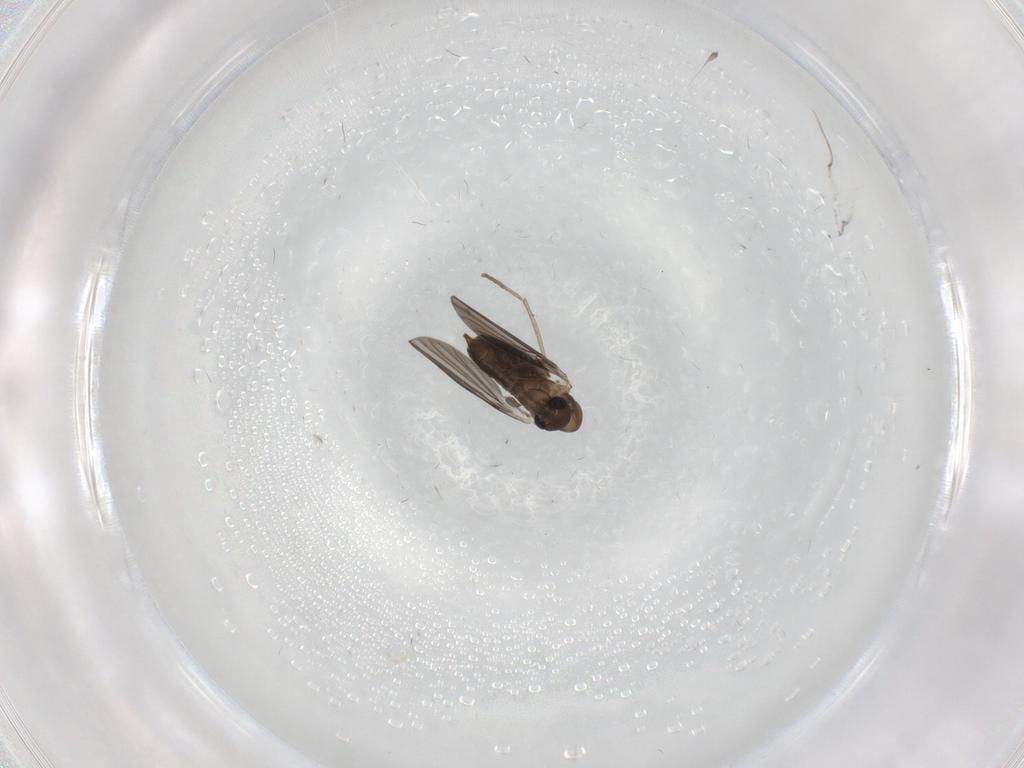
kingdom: Animalia
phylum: Arthropoda
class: Insecta
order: Diptera
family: Psychodidae
